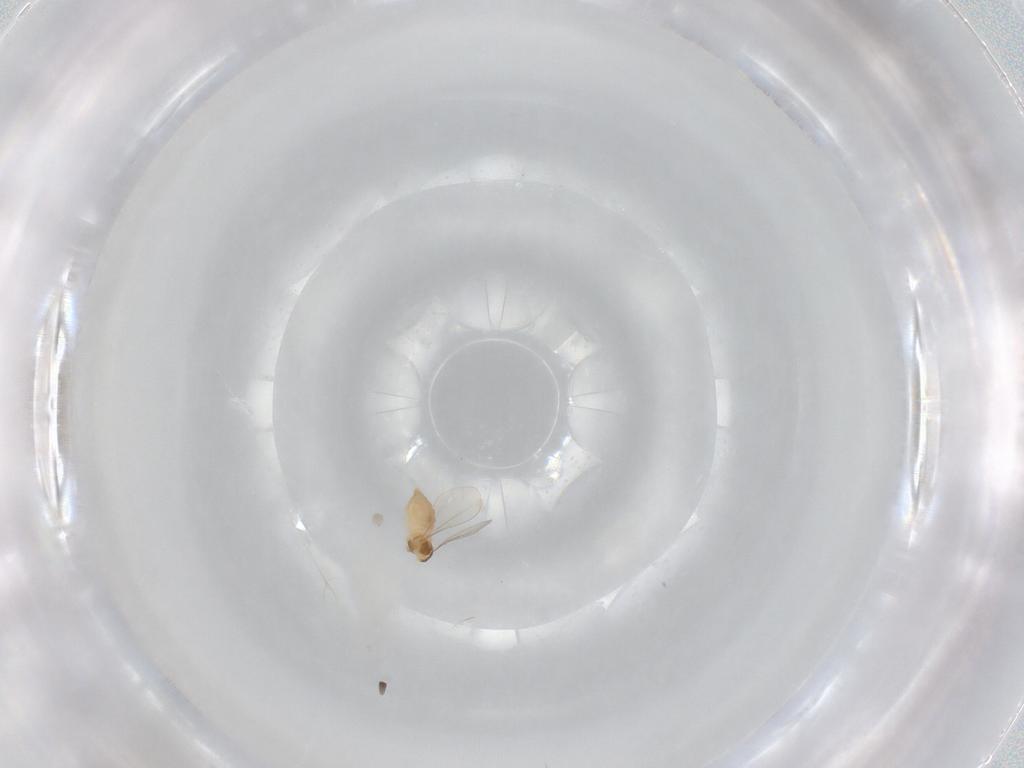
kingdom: Animalia
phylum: Arthropoda
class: Insecta
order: Diptera
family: Cecidomyiidae
